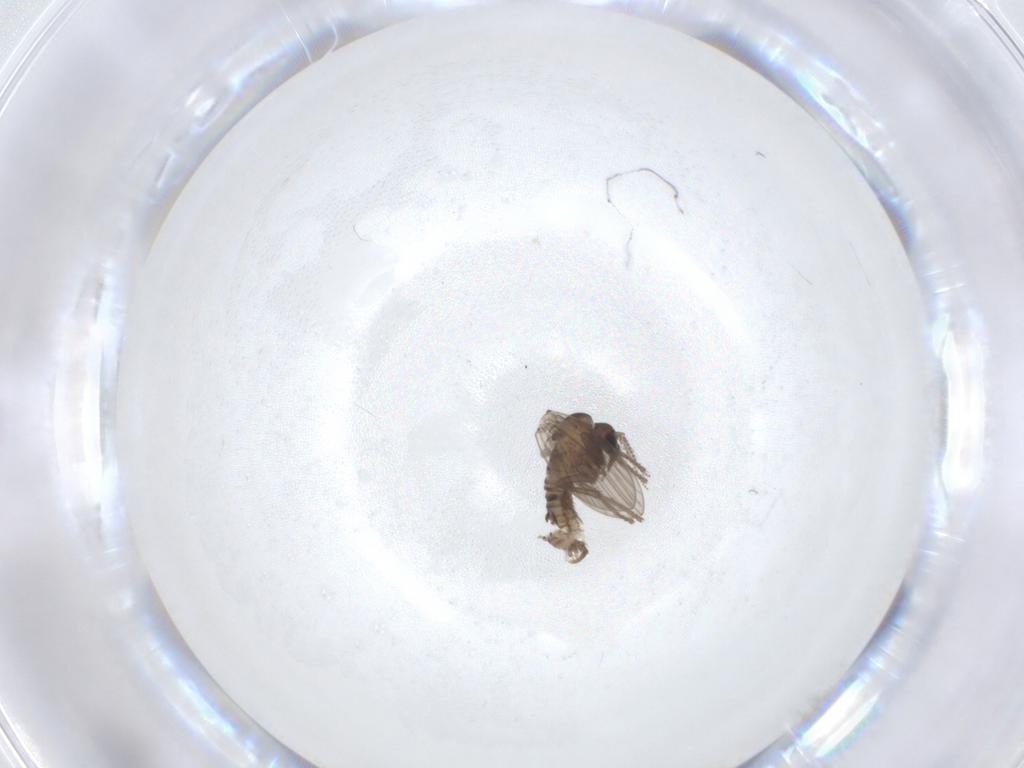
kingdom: Animalia
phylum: Arthropoda
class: Insecta
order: Diptera
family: Psychodidae
